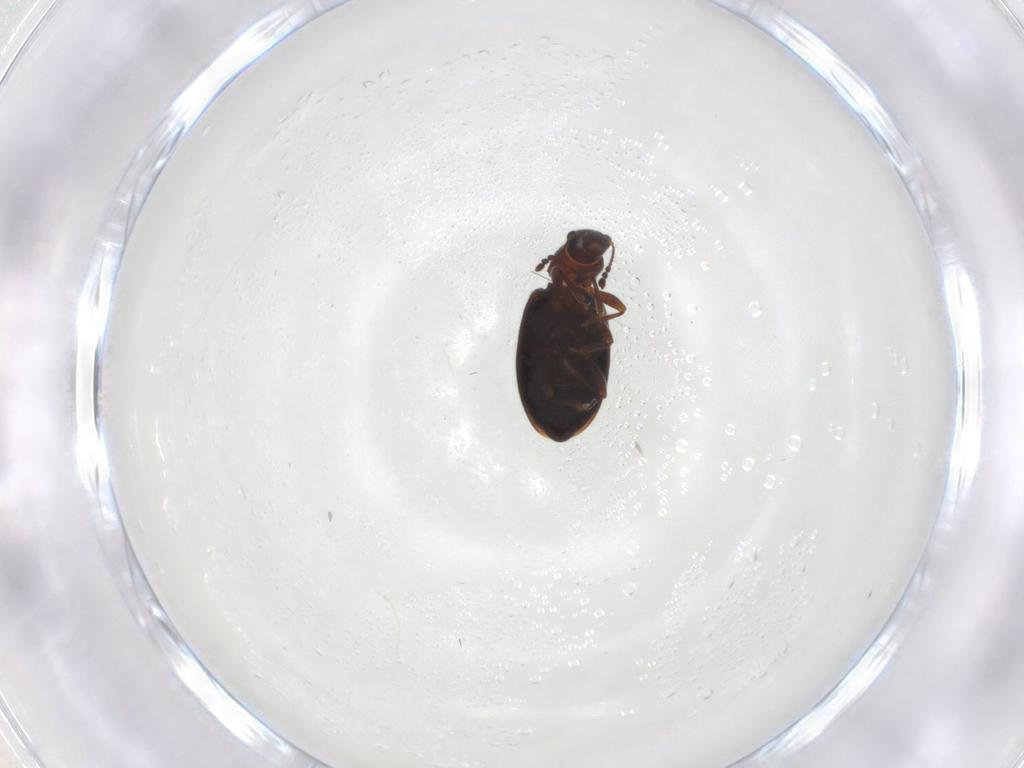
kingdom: Animalia
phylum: Arthropoda
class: Insecta
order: Coleoptera
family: Latridiidae
